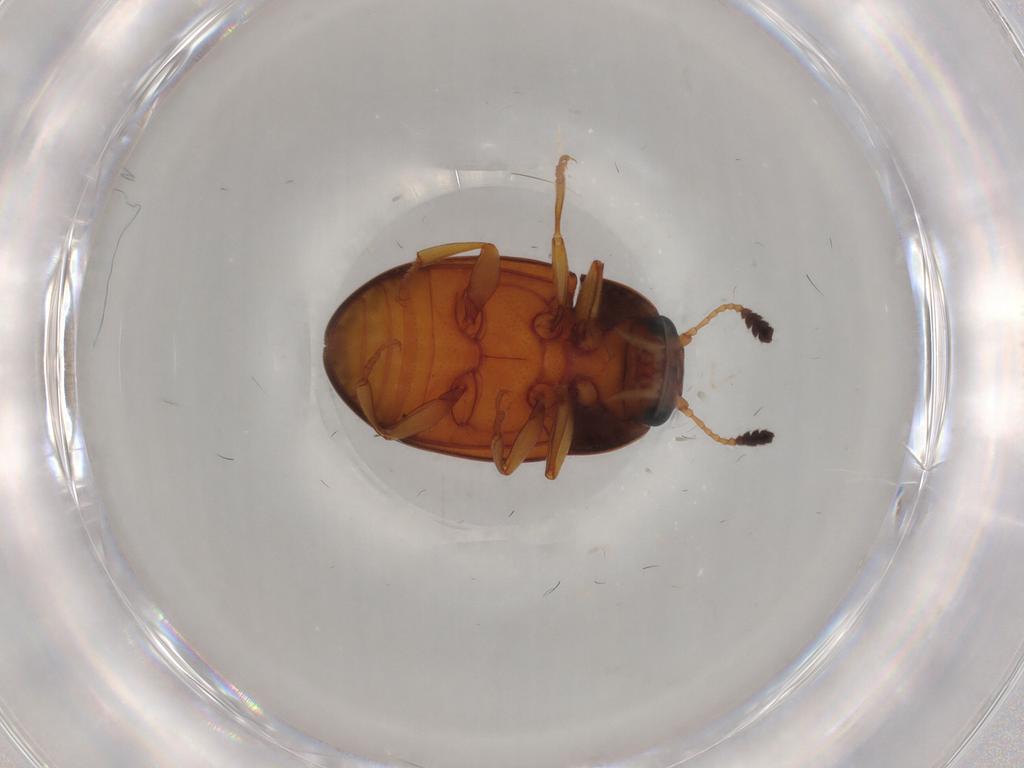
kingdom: Animalia
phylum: Arthropoda
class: Insecta
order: Coleoptera
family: Erotylidae
